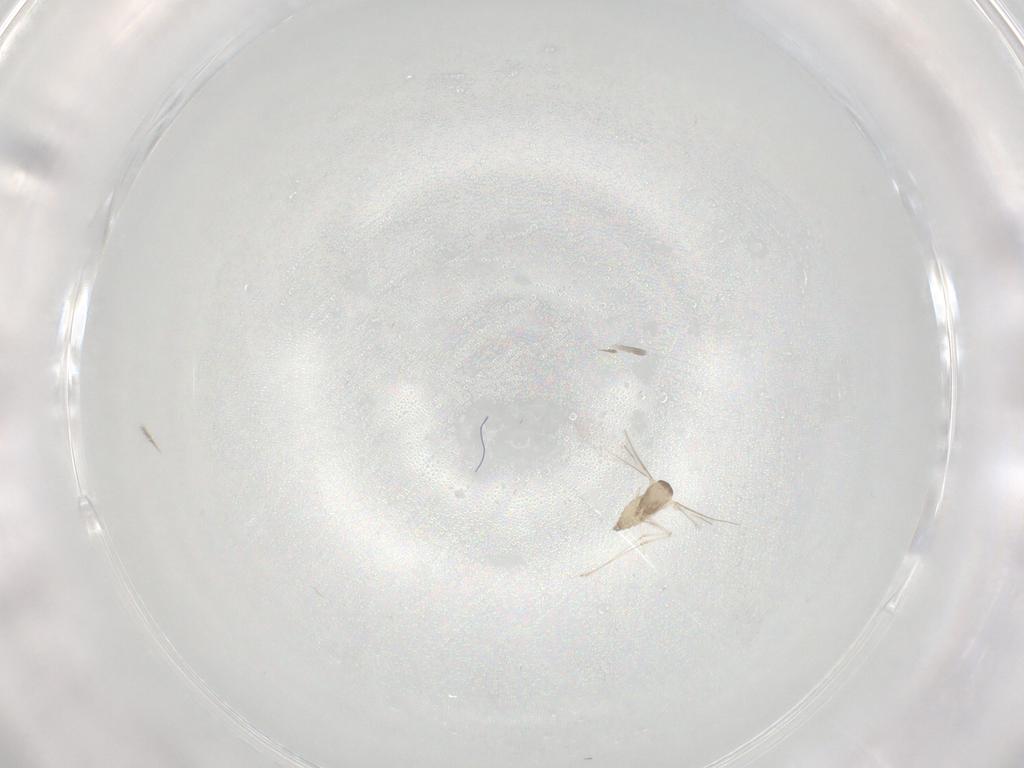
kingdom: Animalia
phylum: Arthropoda
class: Insecta
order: Diptera
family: Cecidomyiidae
